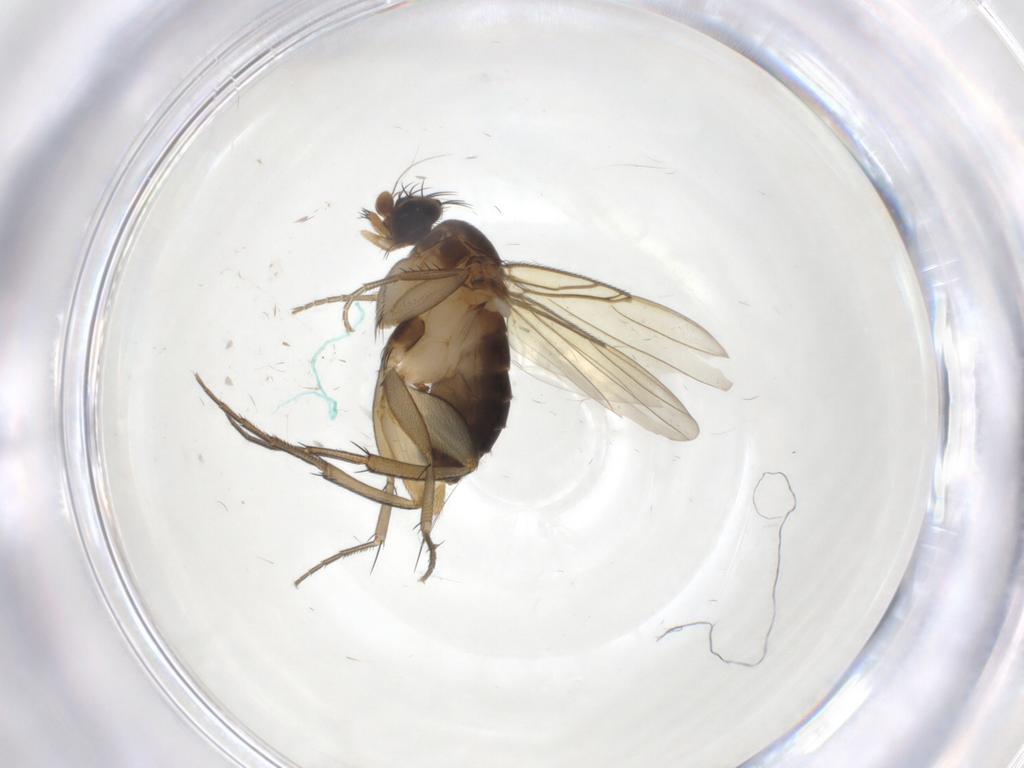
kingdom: Animalia
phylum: Arthropoda
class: Insecta
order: Diptera
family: Phoridae
